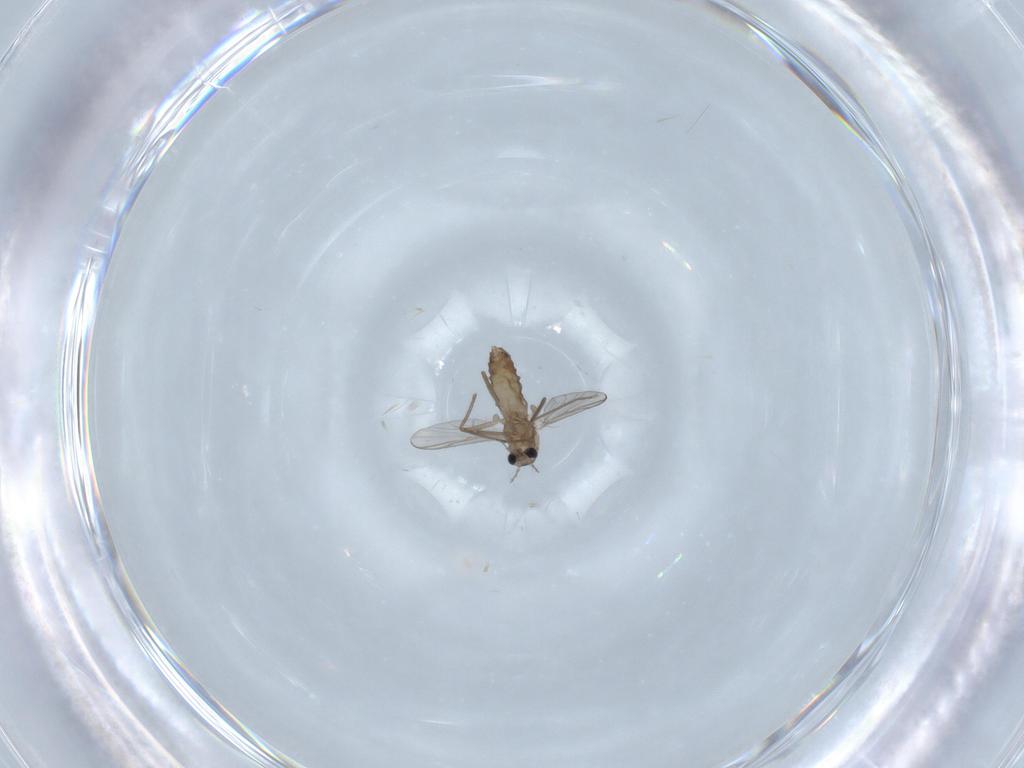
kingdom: Animalia
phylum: Arthropoda
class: Insecta
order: Diptera
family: Chironomidae
